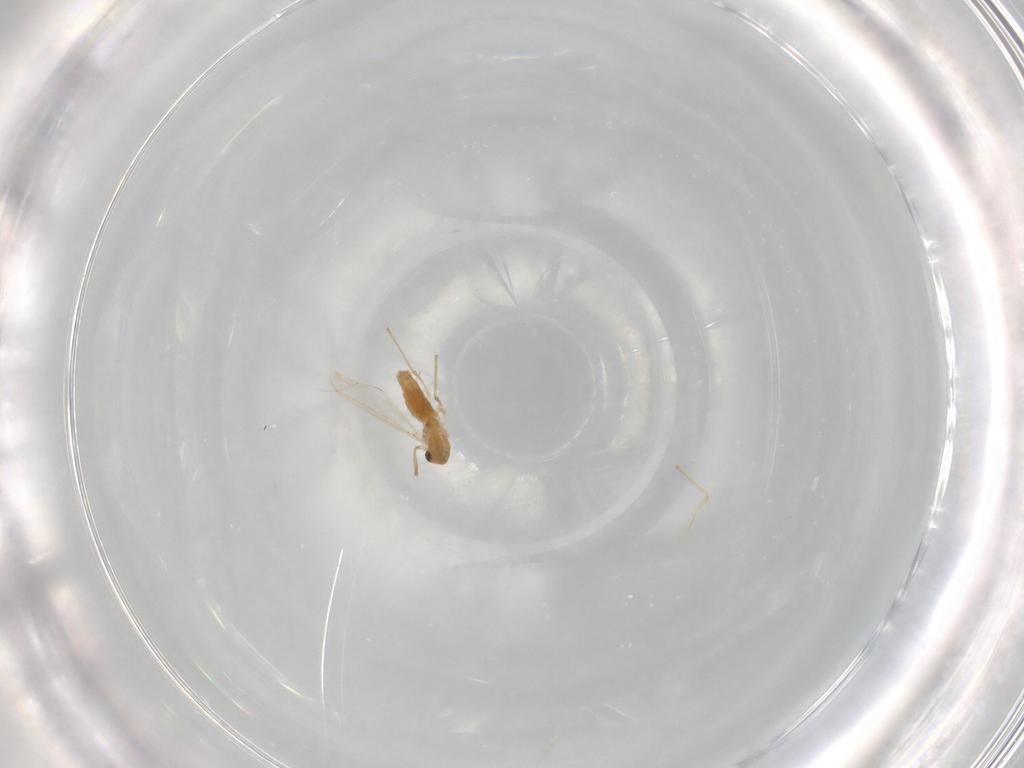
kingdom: Animalia
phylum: Arthropoda
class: Insecta
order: Diptera
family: Chironomidae
